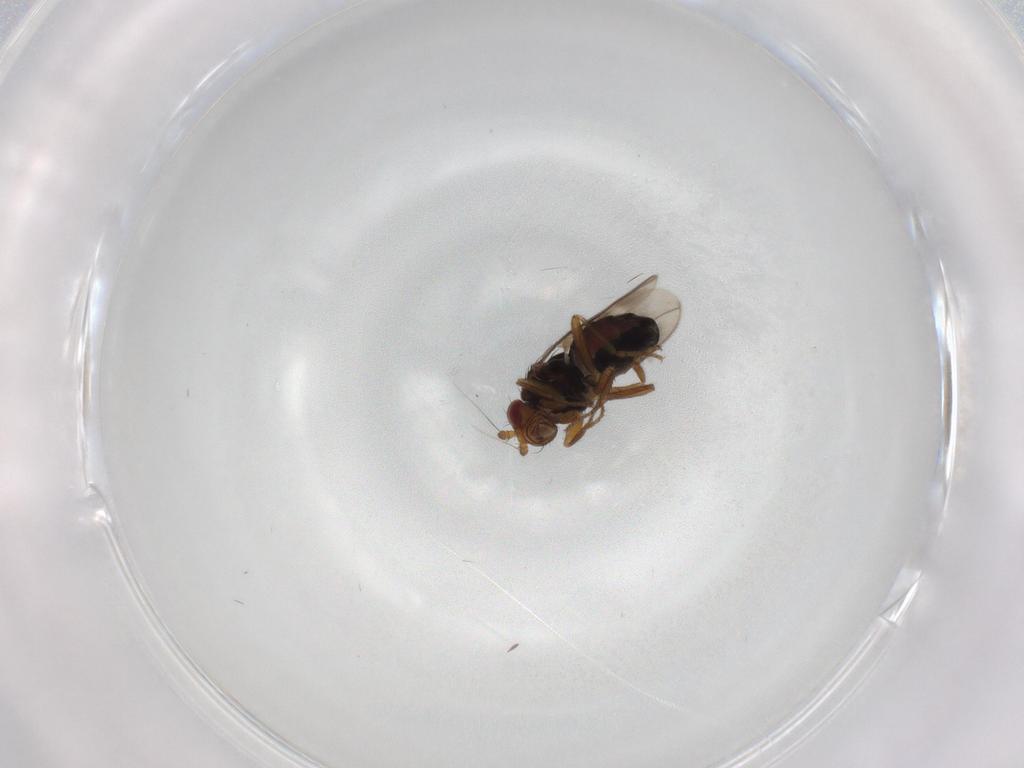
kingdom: Animalia
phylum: Arthropoda
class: Insecta
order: Diptera
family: Sphaeroceridae
